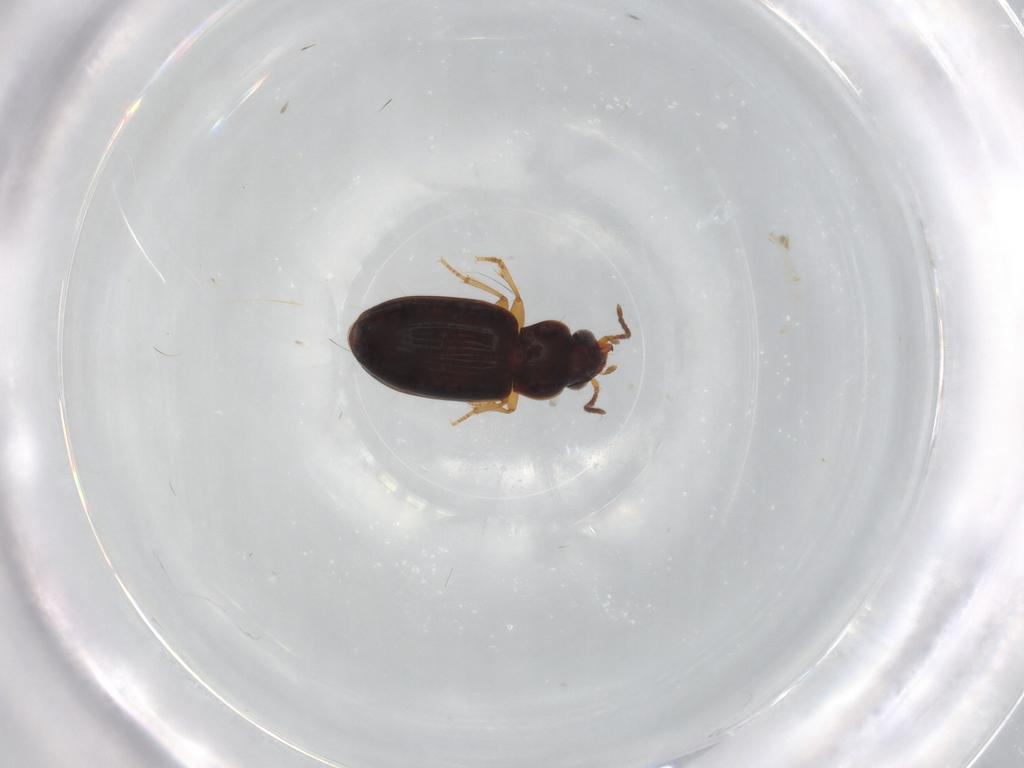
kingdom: Animalia
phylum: Arthropoda
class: Insecta
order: Coleoptera
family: Carabidae
